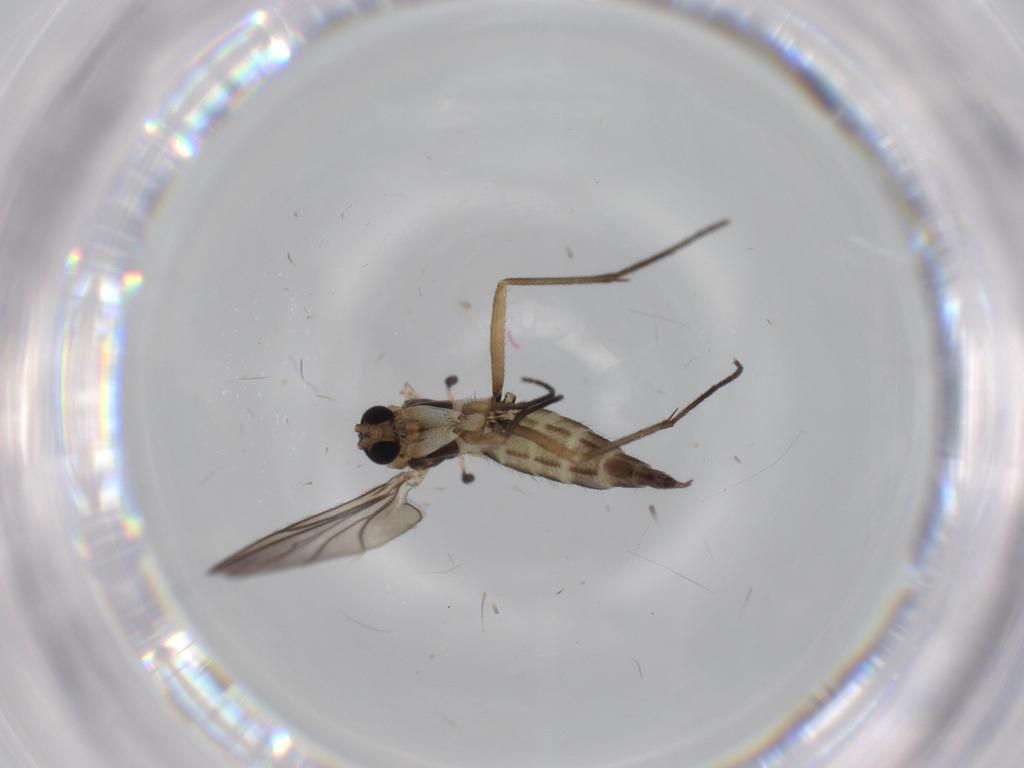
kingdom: Animalia
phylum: Arthropoda
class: Insecta
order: Diptera
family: Sciaridae
